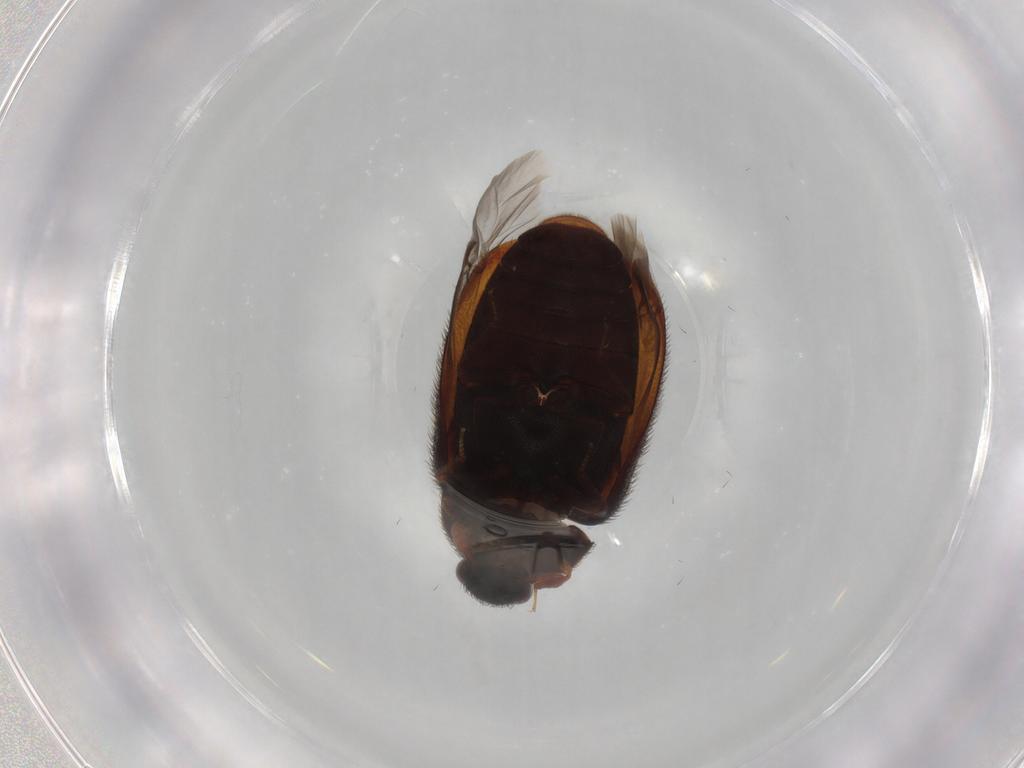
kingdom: Animalia
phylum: Arthropoda
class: Insecta
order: Coleoptera
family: Dermestidae
